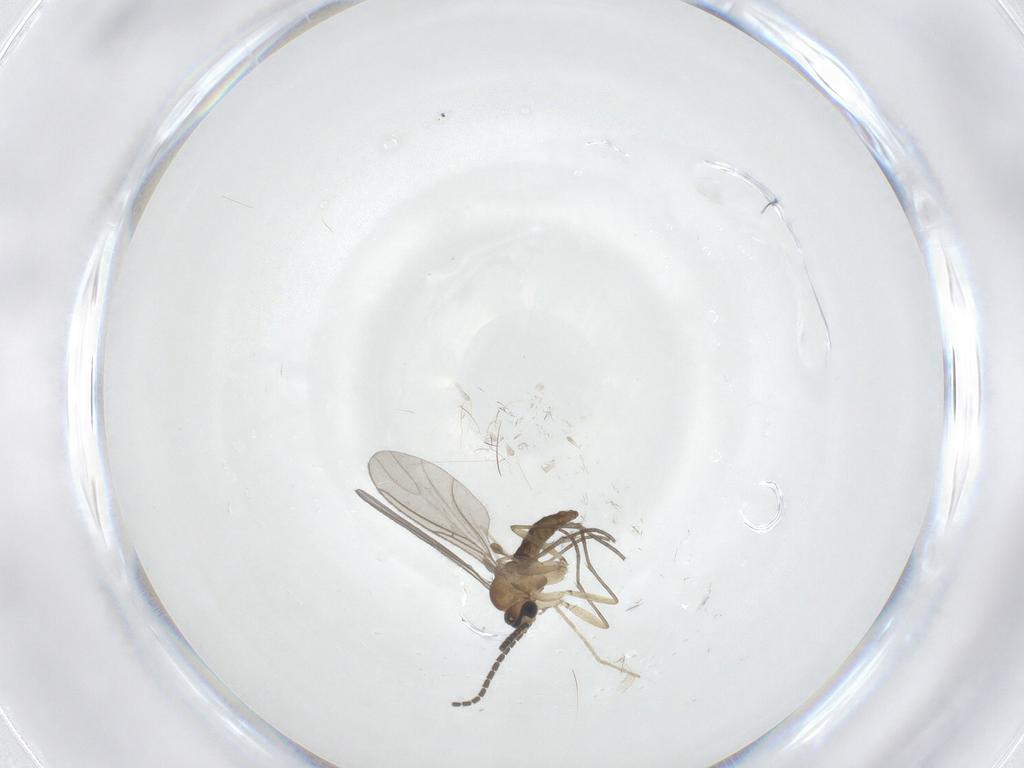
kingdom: Animalia
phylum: Arthropoda
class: Insecta
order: Diptera
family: Sciaridae
